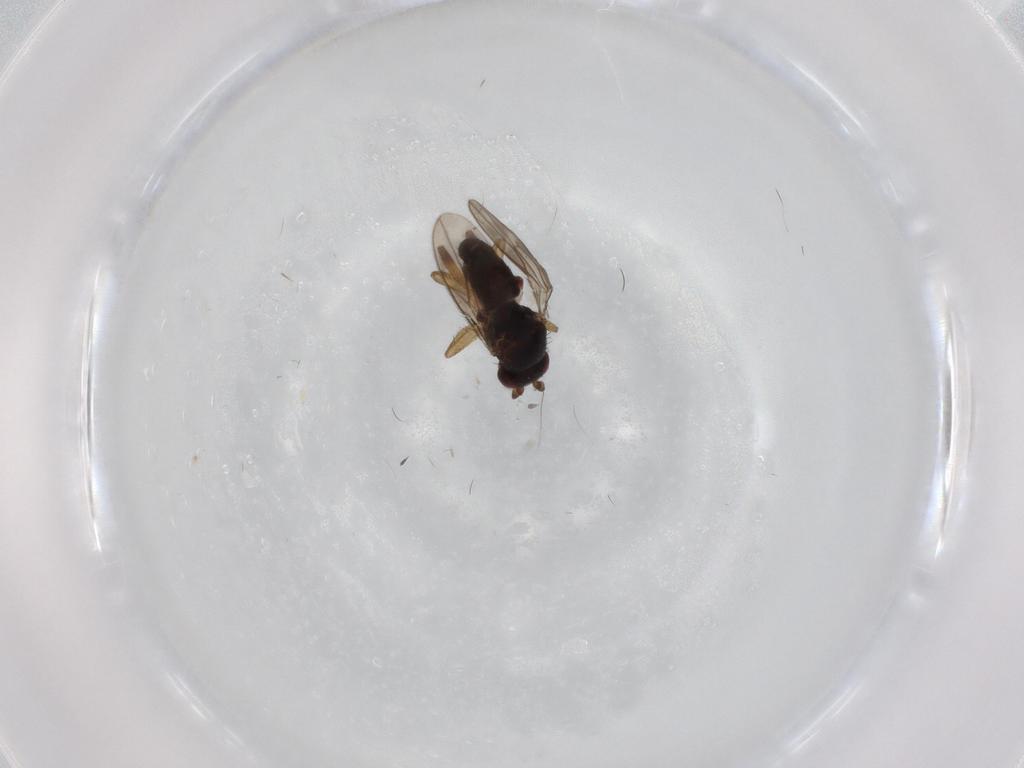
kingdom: Animalia
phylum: Arthropoda
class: Insecta
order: Diptera
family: Sphaeroceridae
